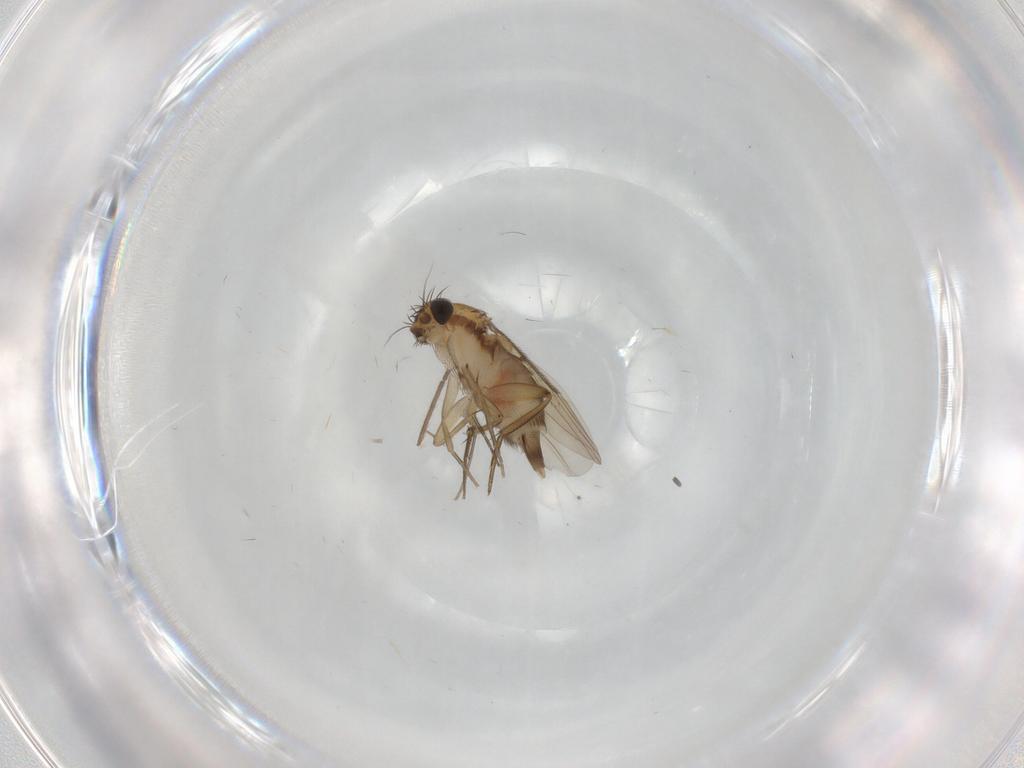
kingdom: Animalia
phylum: Arthropoda
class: Insecta
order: Diptera
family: Phoridae
